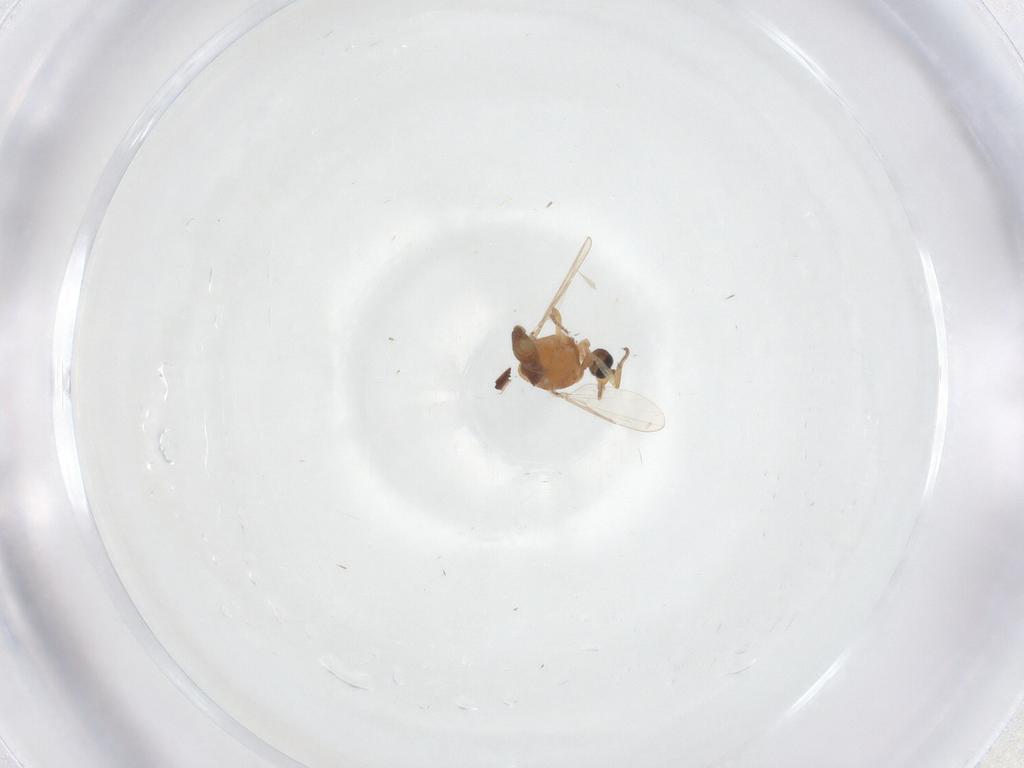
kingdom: Animalia
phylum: Arthropoda
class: Insecta
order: Diptera
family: Ceratopogonidae
